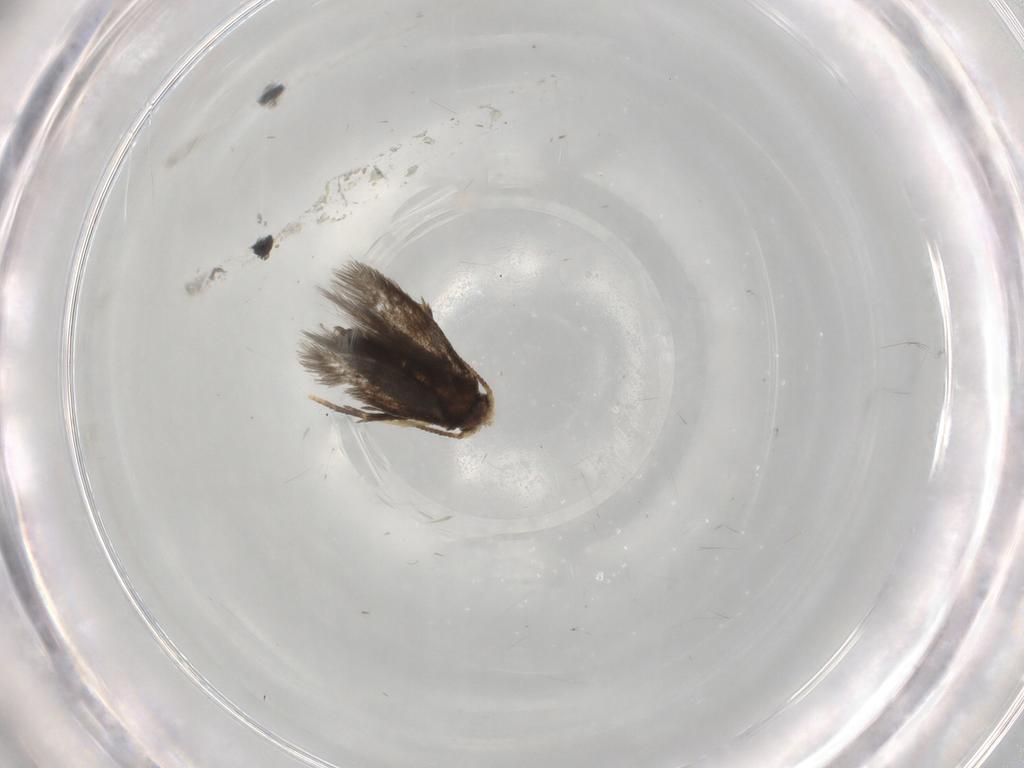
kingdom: Animalia
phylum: Arthropoda
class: Insecta
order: Lepidoptera
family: Nepticulidae
